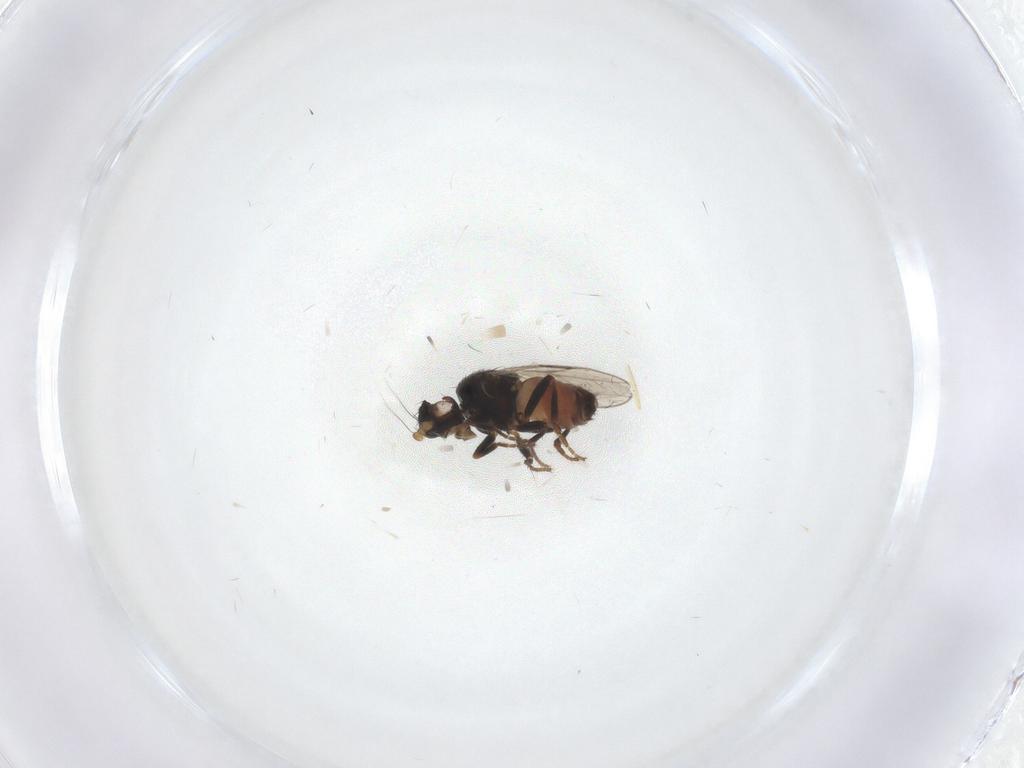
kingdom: Animalia
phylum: Arthropoda
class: Insecta
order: Diptera
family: Sphaeroceridae
